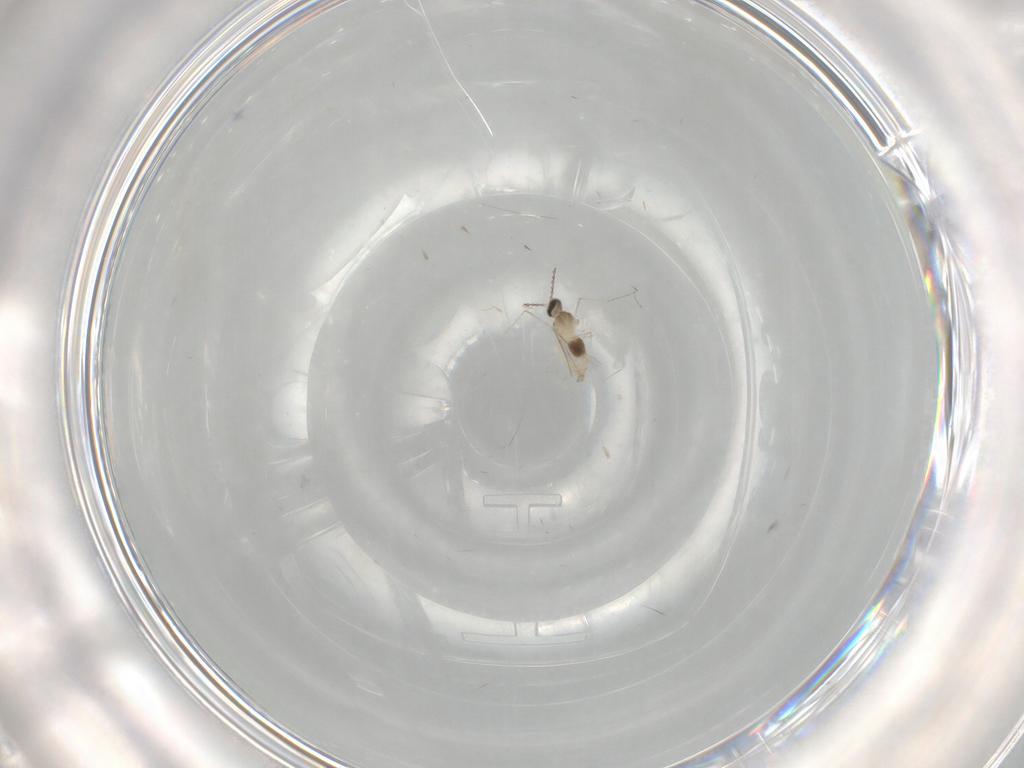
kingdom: Animalia
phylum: Arthropoda
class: Insecta
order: Diptera
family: Cecidomyiidae
